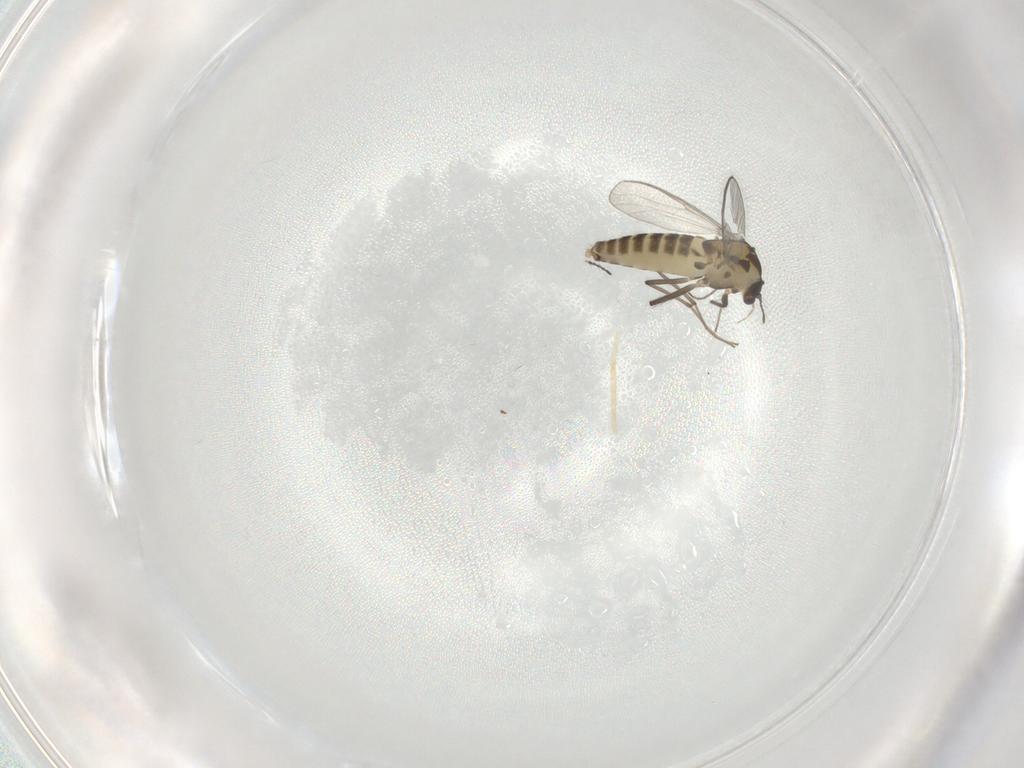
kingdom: Animalia
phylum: Arthropoda
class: Insecta
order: Diptera
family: Chironomidae
